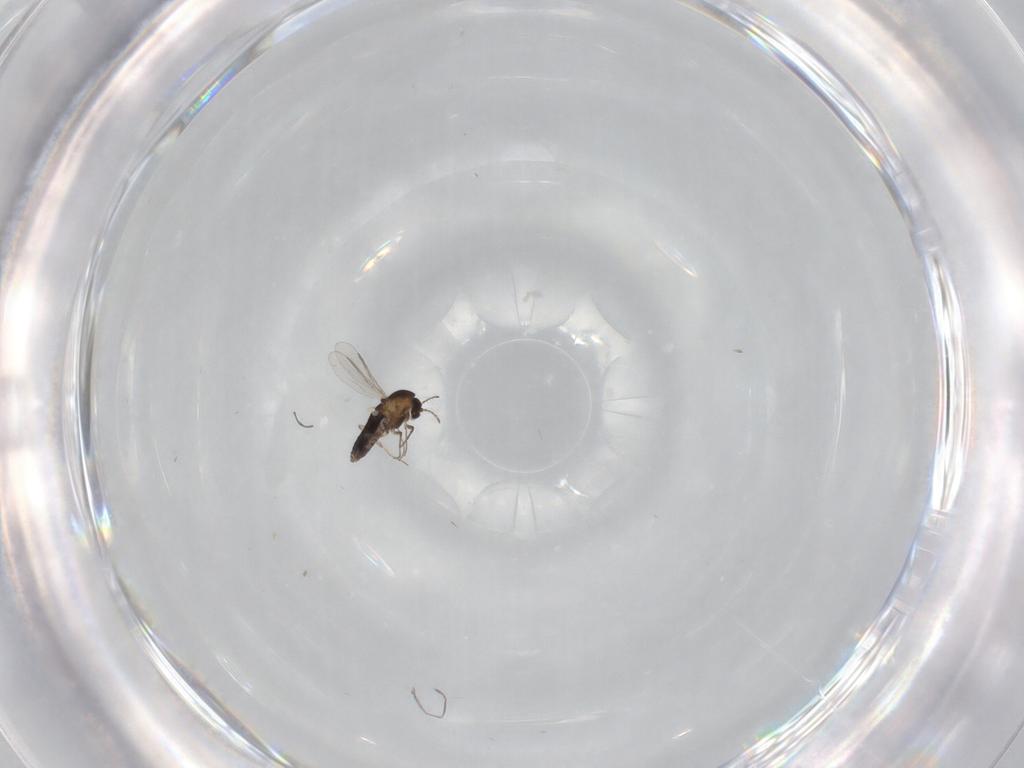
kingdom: Animalia
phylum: Arthropoda
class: Insecta
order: Diptera
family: Chironomidae
